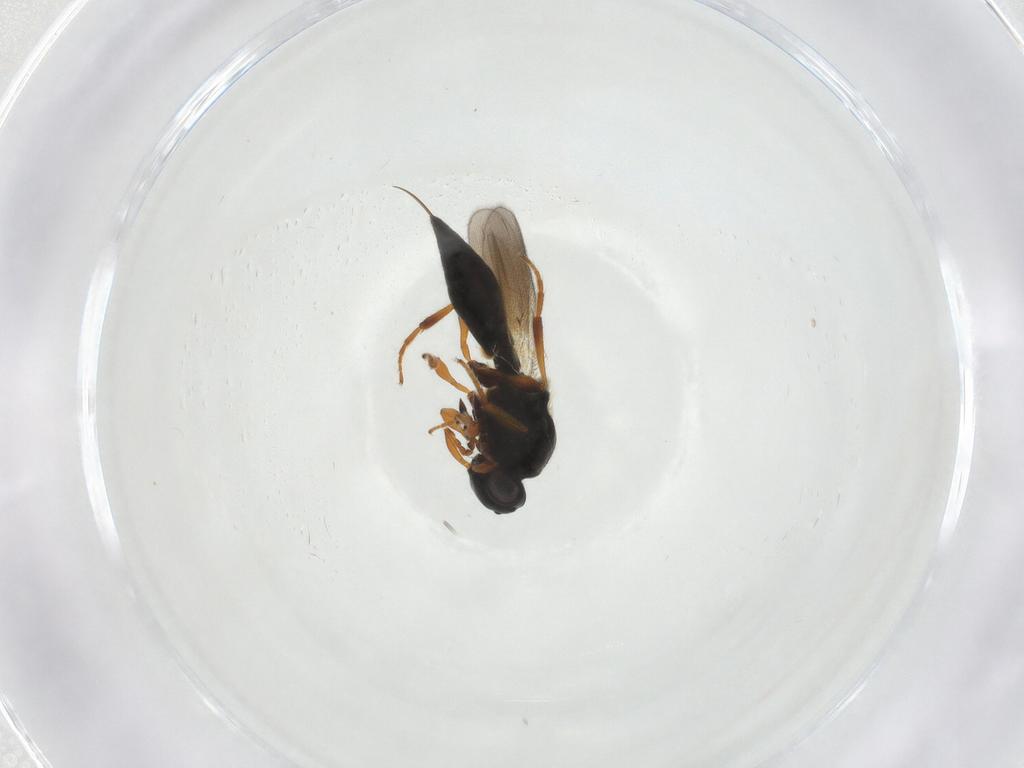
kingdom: Animalia
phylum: Arthropoda
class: Insecta
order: Hymenoptera
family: Platygastridae
